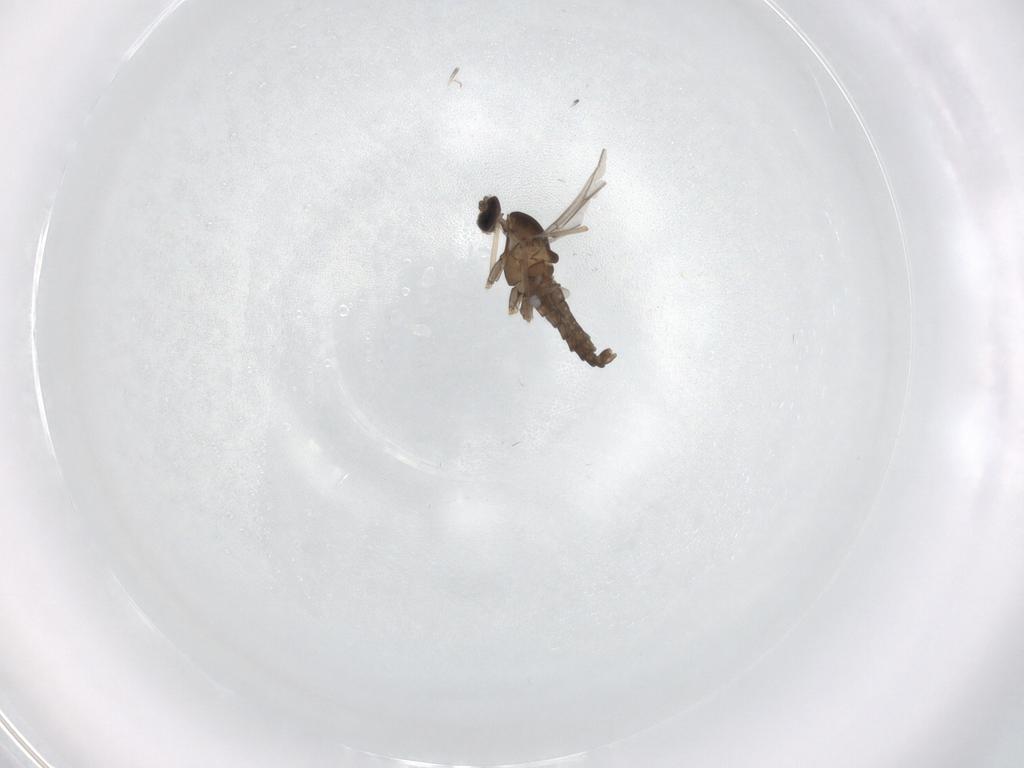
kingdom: Animalia
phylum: Arthropoda
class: Insecta
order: Diptera
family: Cecidomyiidae
